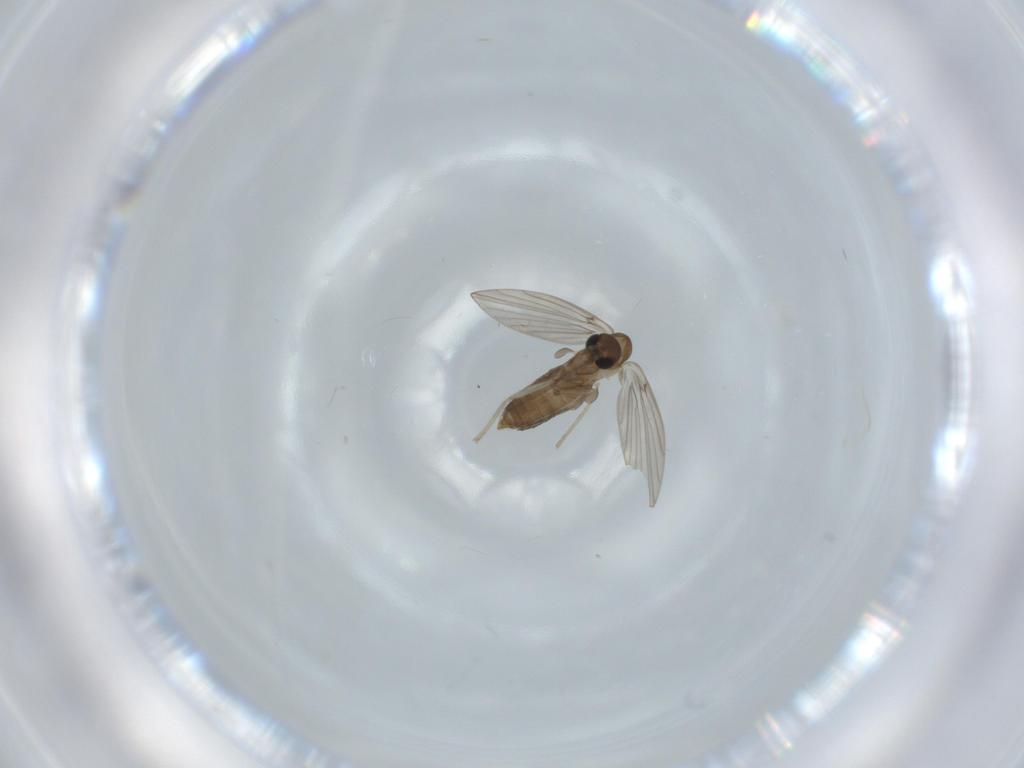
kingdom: Animalia
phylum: Arthropoda
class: Insecta
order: Diptera
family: Sciaridae
